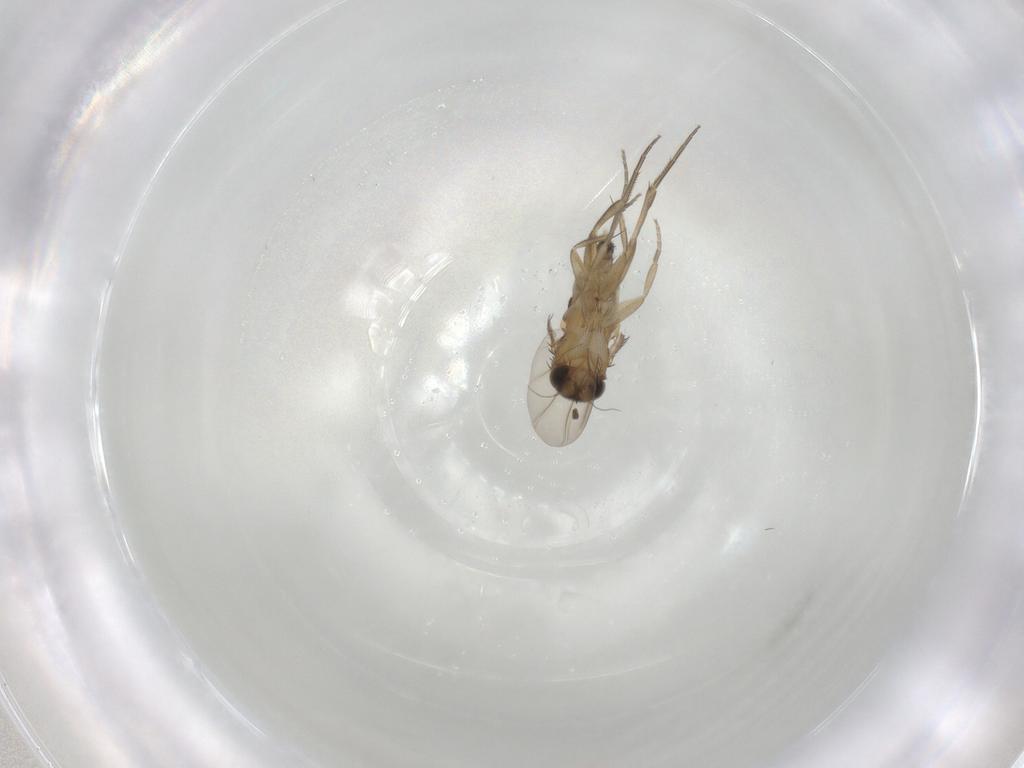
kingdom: Animalia
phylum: Arthropoda
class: Insecta
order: Diptera
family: Phoridae
